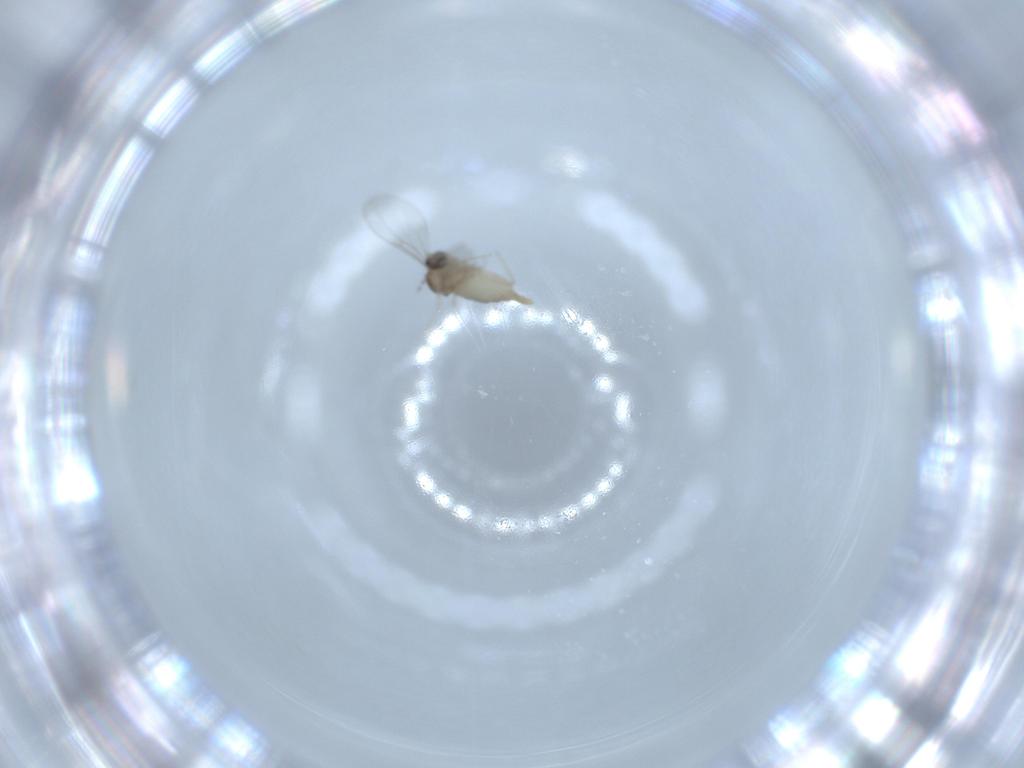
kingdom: Animalia
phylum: Arthropoda
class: Insecta
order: Diptera
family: Cecidomyiidae
